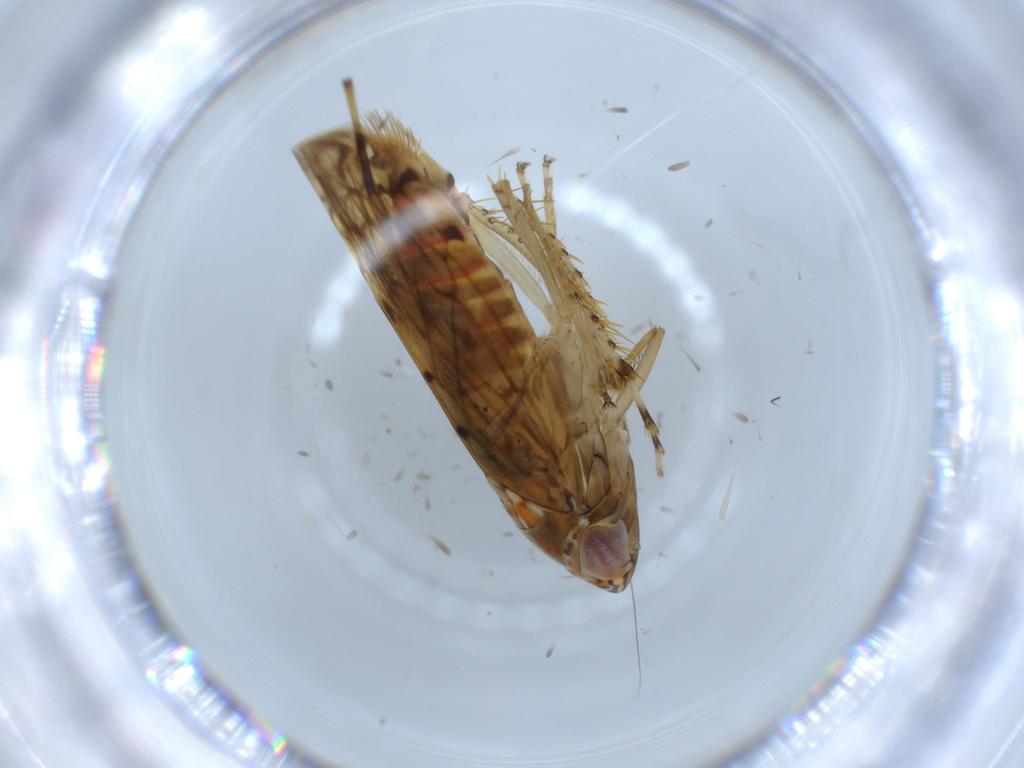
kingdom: Animalia
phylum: Arthropoda
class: Insecta
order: Hemiptera
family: Cicadellidae
